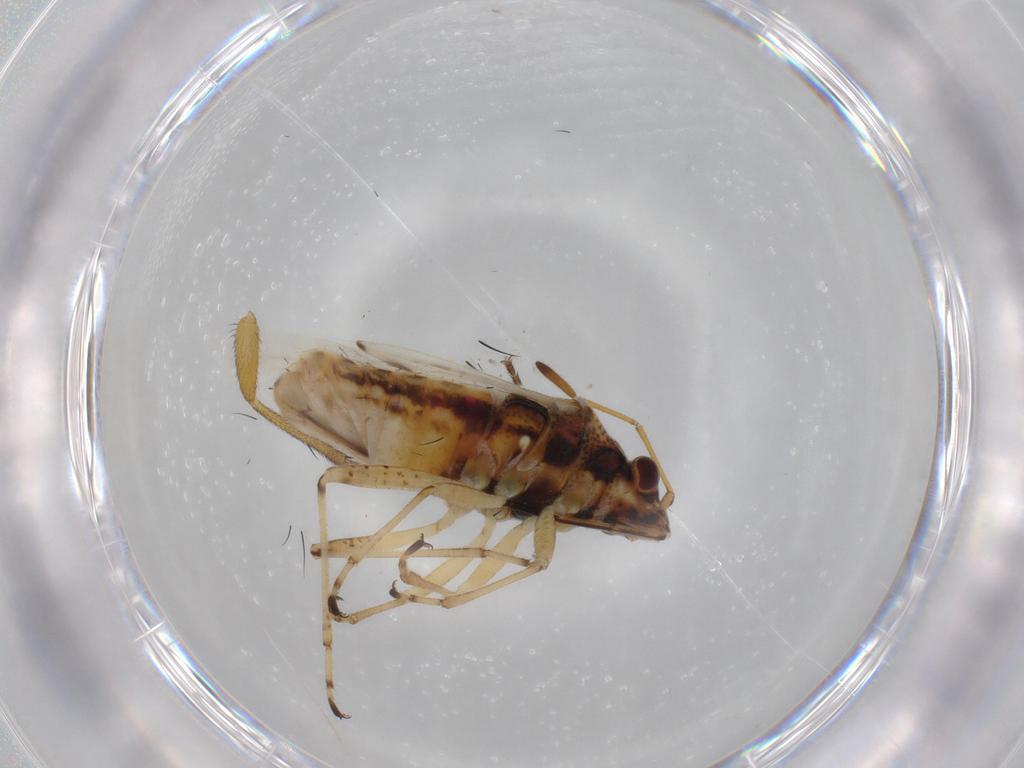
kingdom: Animalia
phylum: Arthropoda
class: Insecta
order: Hemiptera
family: Lygaeidae
